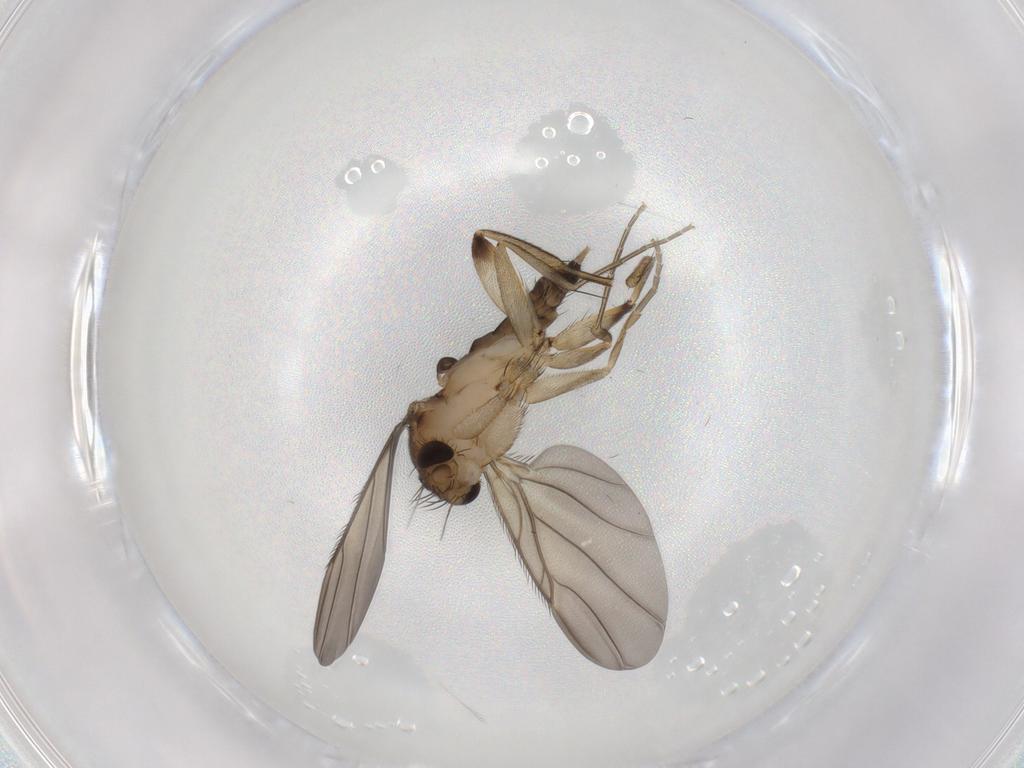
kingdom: Animalia
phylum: Arthropoda
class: Insecta
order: Diptera
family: Phoridae
